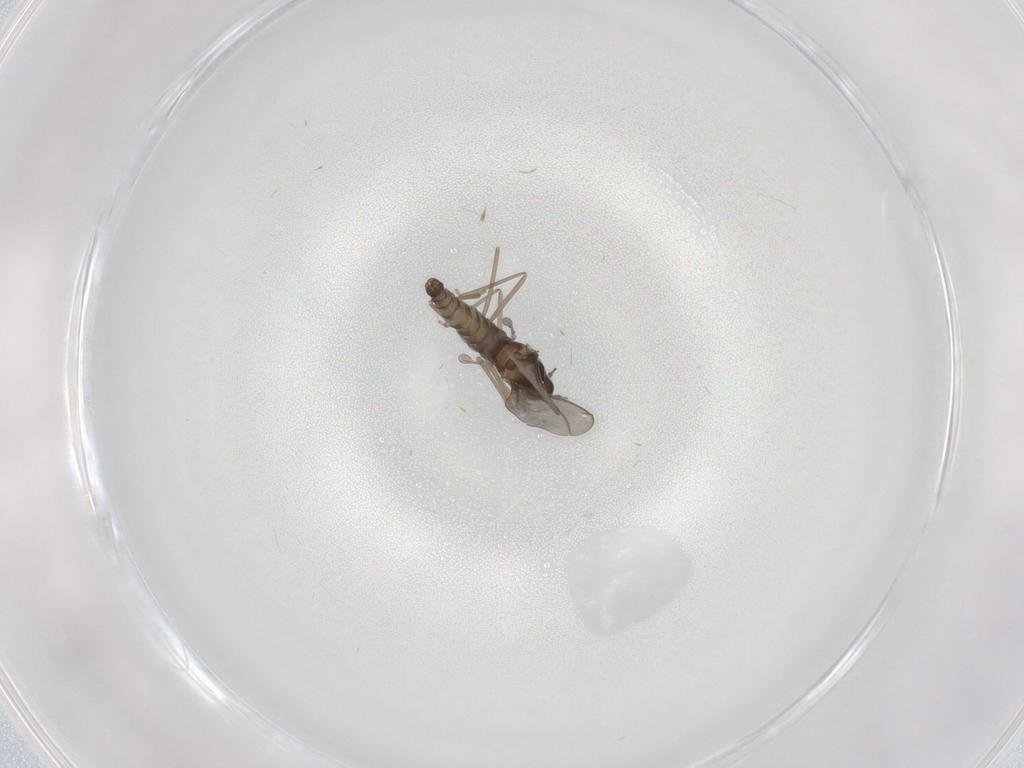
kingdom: Animalia
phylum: Arthropoda
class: Insecta
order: Diptera
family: Cecidomyiidae
